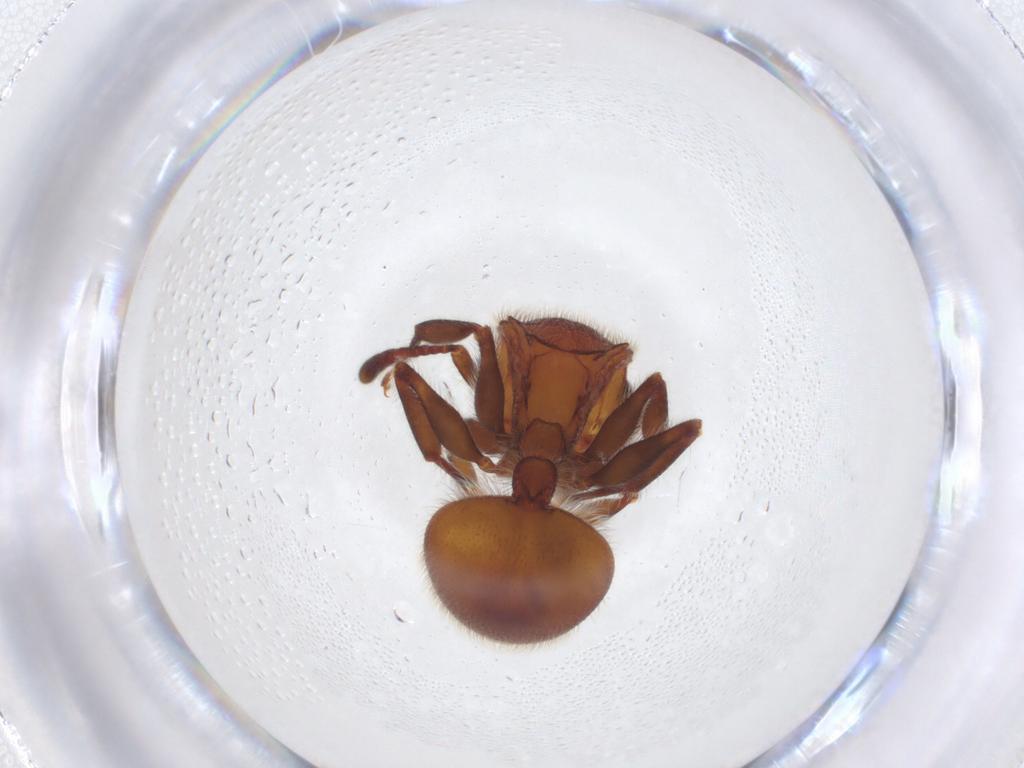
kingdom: Animalia
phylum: Arthropoda
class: Insecta
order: Hymenoptera
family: Formicidae
